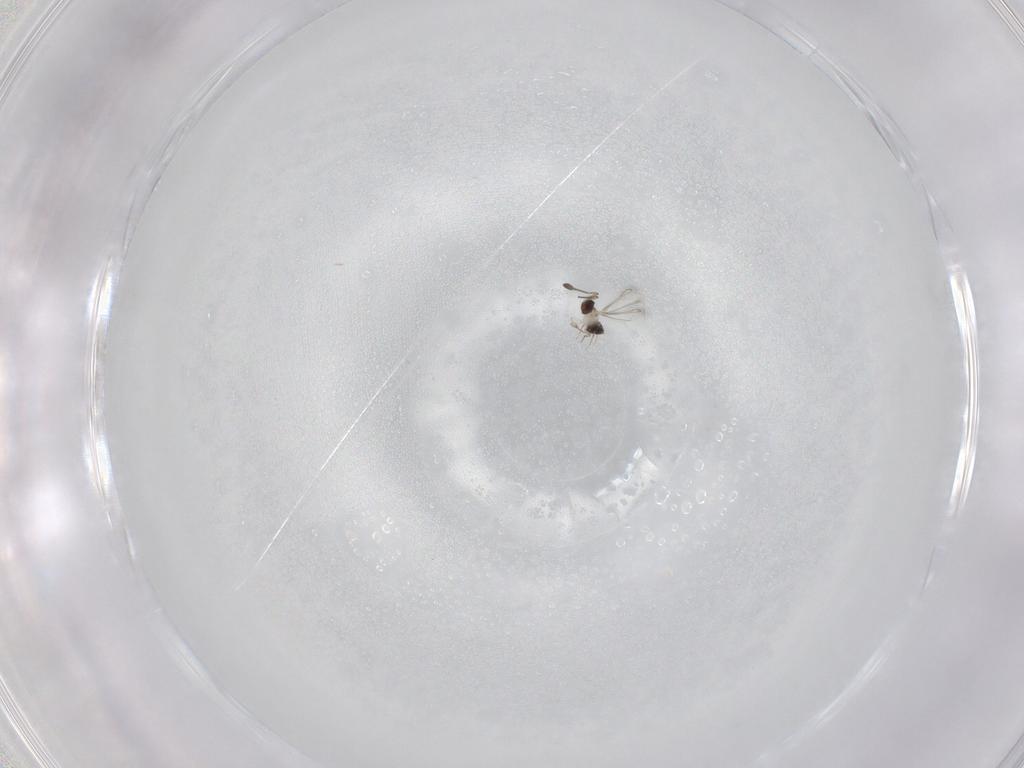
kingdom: Animalia
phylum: Arthropoda
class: Insecta
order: Hymenoptera
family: Mymaridae
